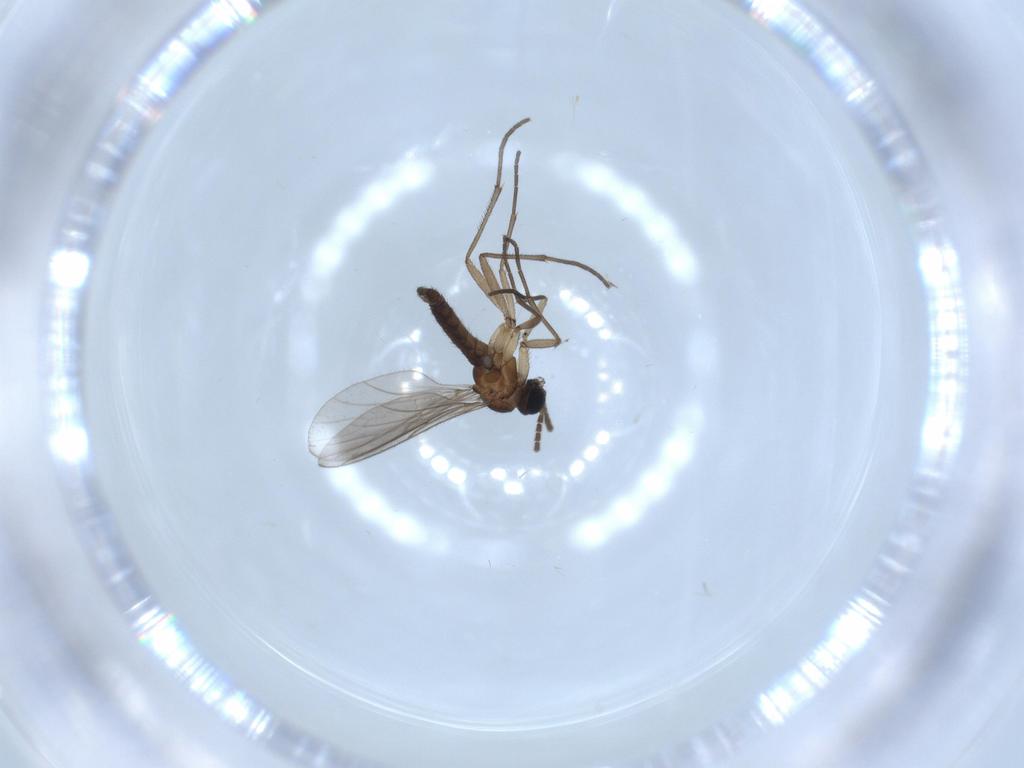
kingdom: Animalia
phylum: Arthropoda
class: Insecta
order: Diptera
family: Sciaridae
